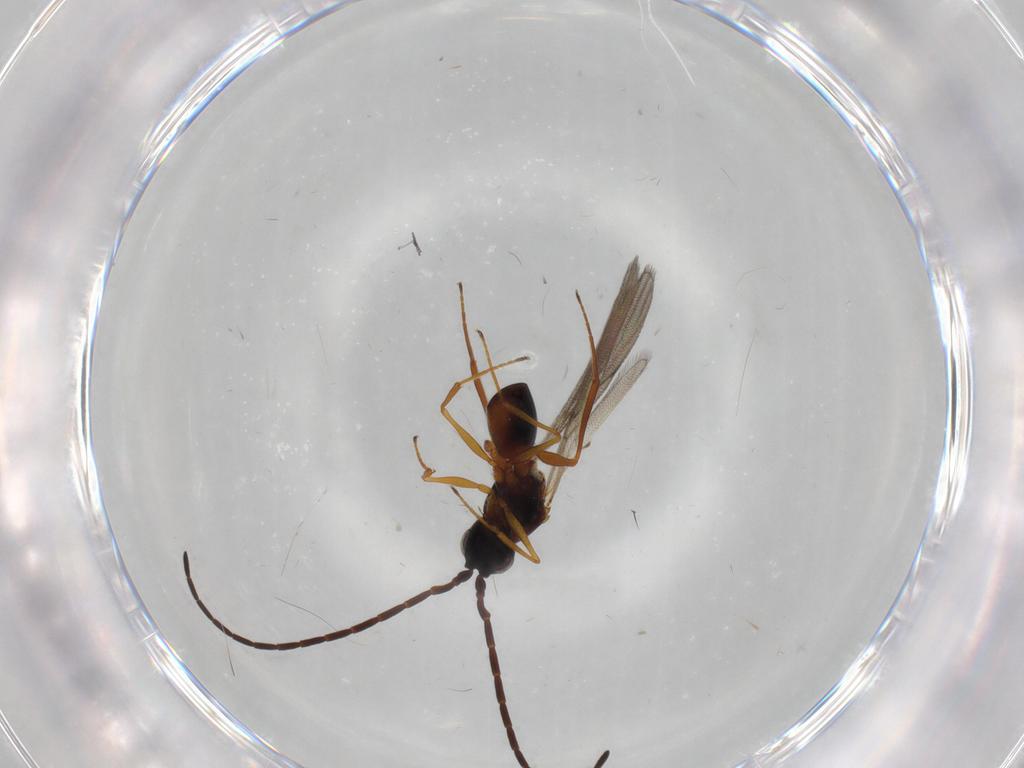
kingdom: Animalia
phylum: Arthropoda
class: Insecta
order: Hymenoptera
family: Figitidae
